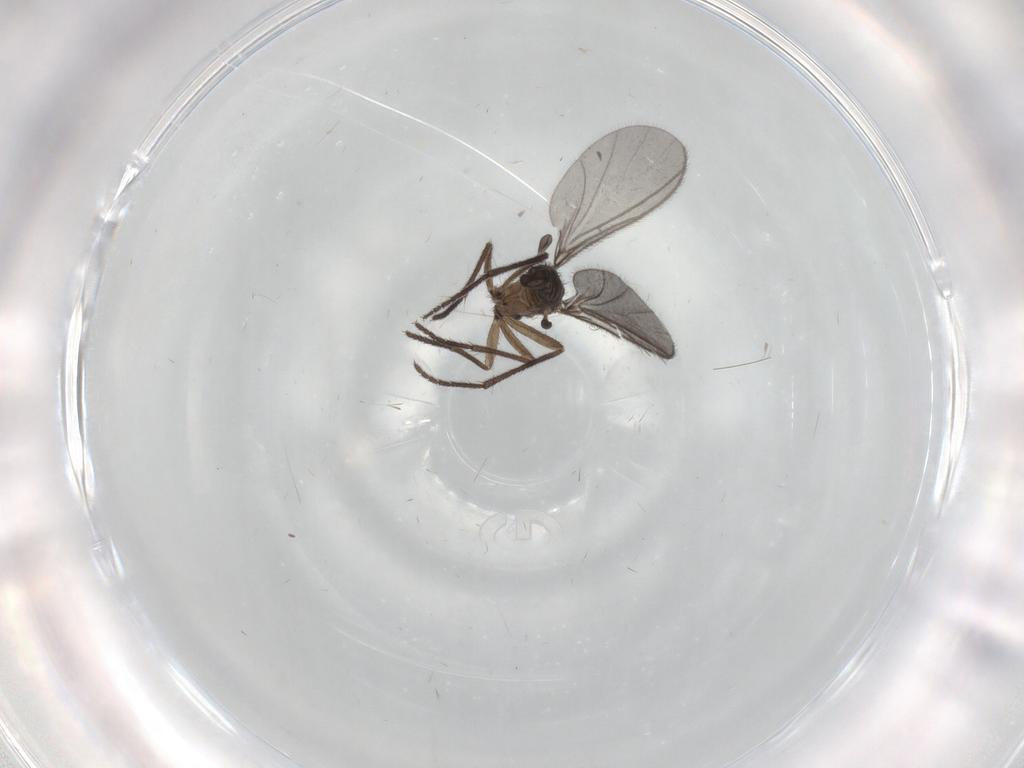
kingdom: Animalia
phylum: Arthropoda
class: Insecta
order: Diptera
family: Sciaridae
